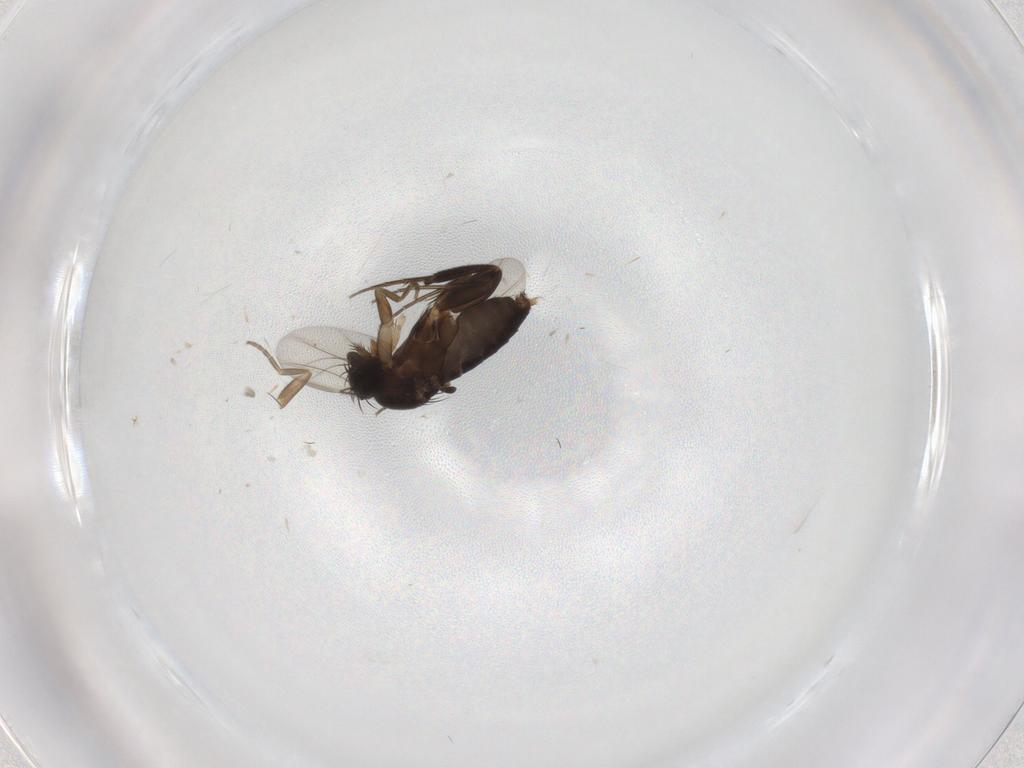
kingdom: Animalia
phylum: Arthropoda
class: Insecta
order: Diptera
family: Phoridae
